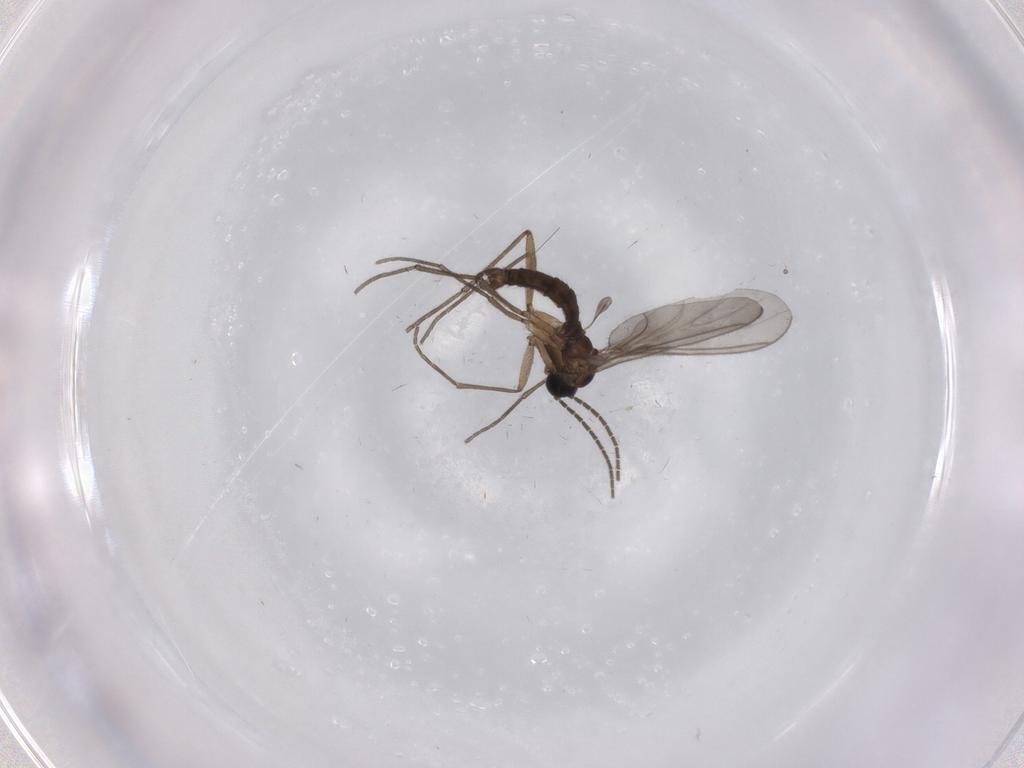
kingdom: Animalia
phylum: Arthropoda
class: Insecta
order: Diptera
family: Sciaridae
